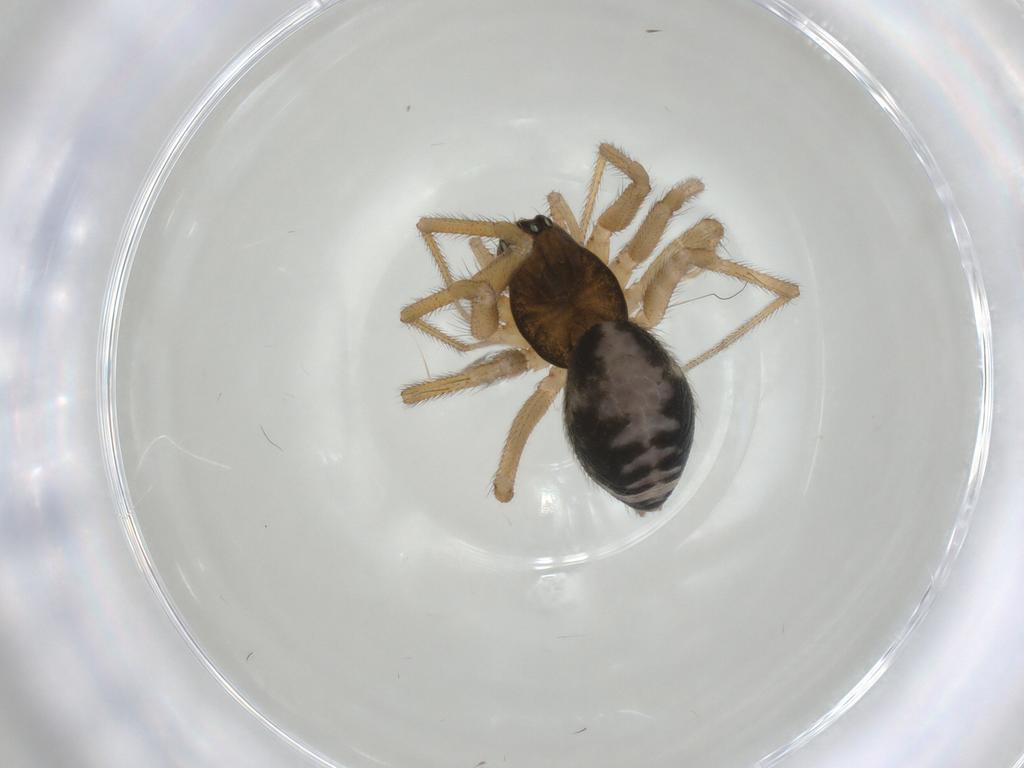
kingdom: Animalia
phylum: Arthropoda
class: Arachnida
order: Araneae
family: Linyphiidae
